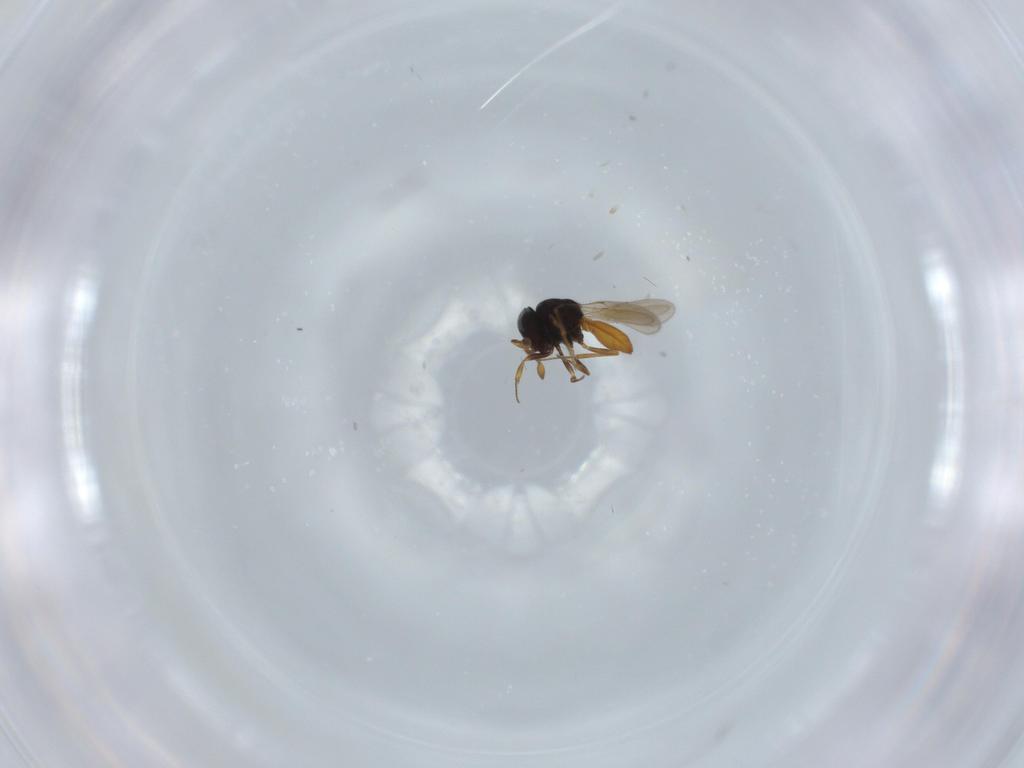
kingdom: Animalia
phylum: Arthropoda
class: Insecta
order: Hymenoptera
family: Scelionidae
